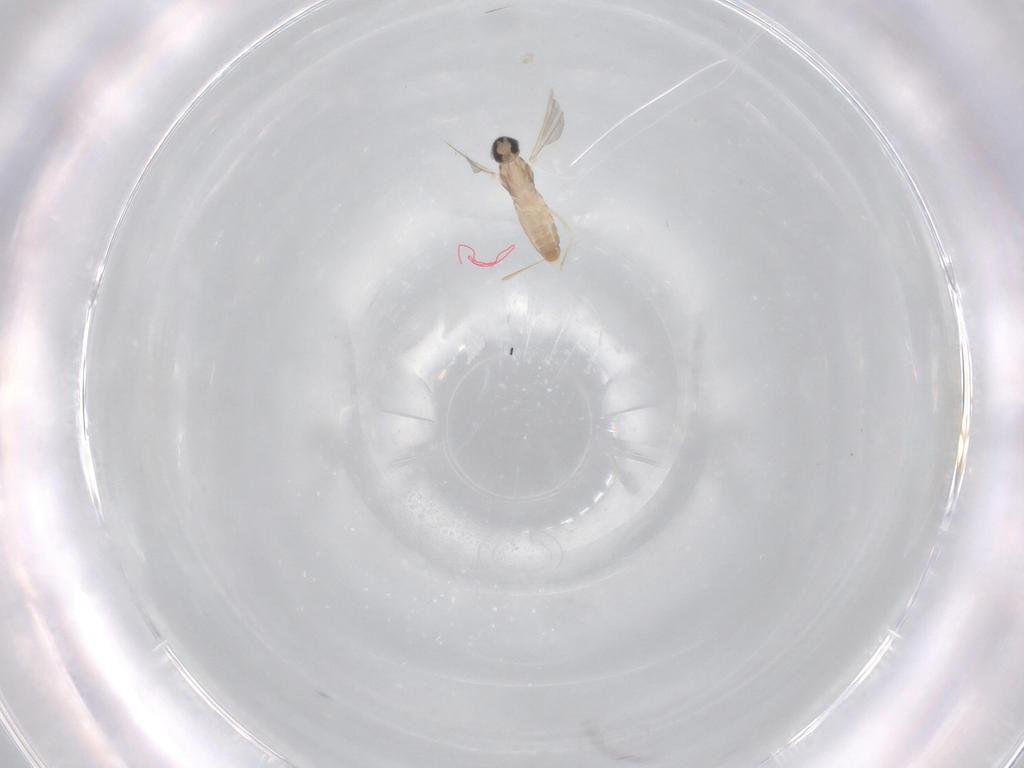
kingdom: Animalia
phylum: Arthropoda
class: Insecta
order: Diptera
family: Cecidomyiidae
